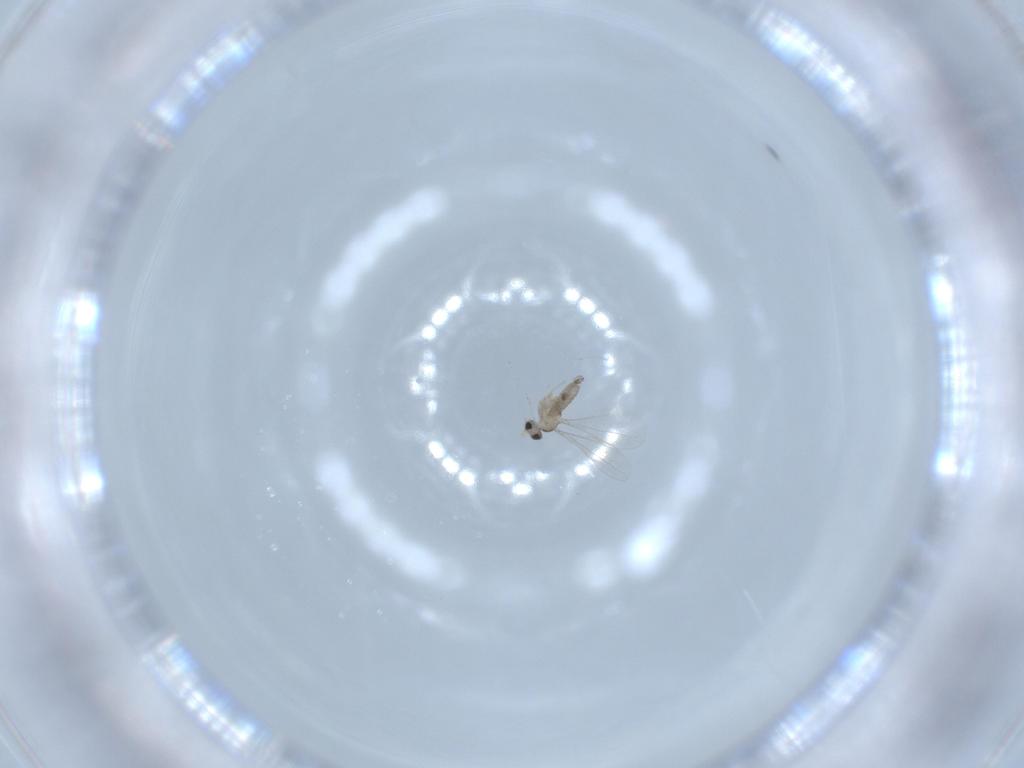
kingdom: Animalia
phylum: Arthropoda
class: Insecta
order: Diptera
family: Cecidomyiidae
